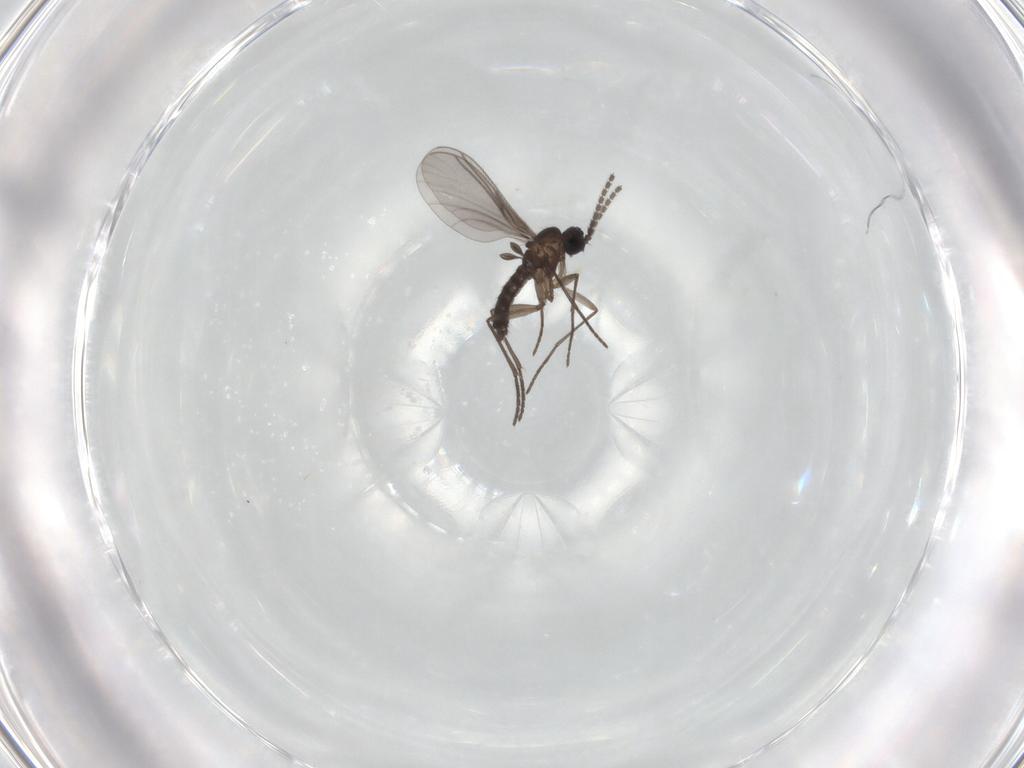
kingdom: Animalia
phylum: Arthropoda
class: Insecta
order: Diptera
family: Sciaridae
